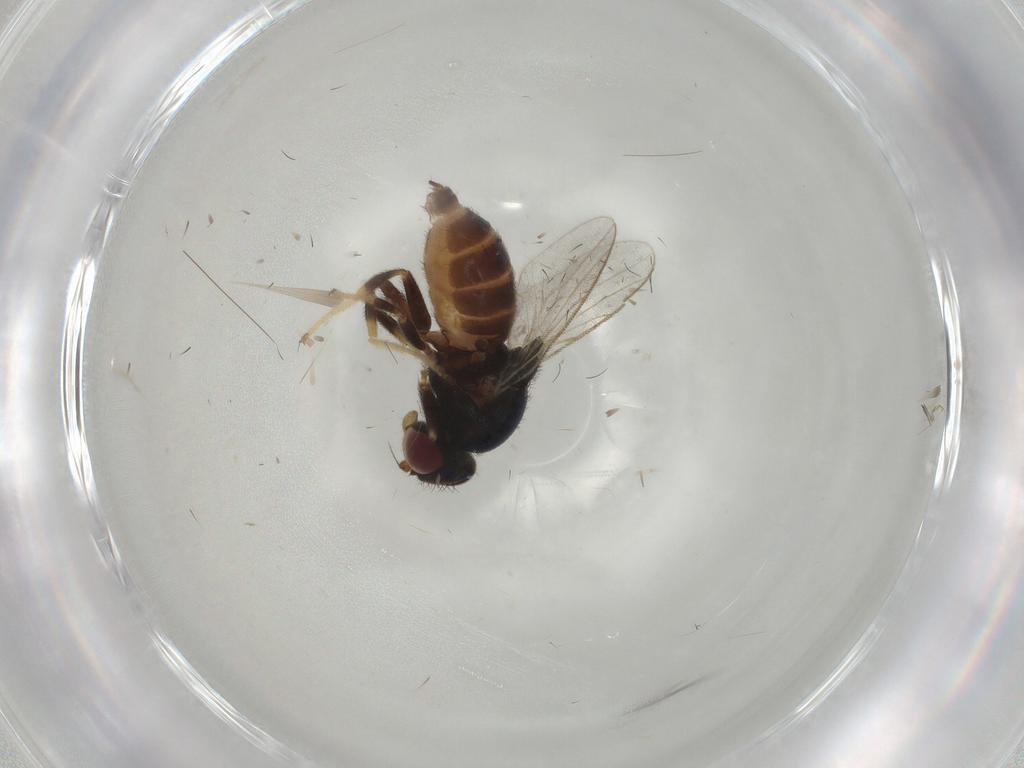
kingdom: Animalia
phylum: Arthropoda
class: Insecta
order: Diptera
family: Chloropidae
